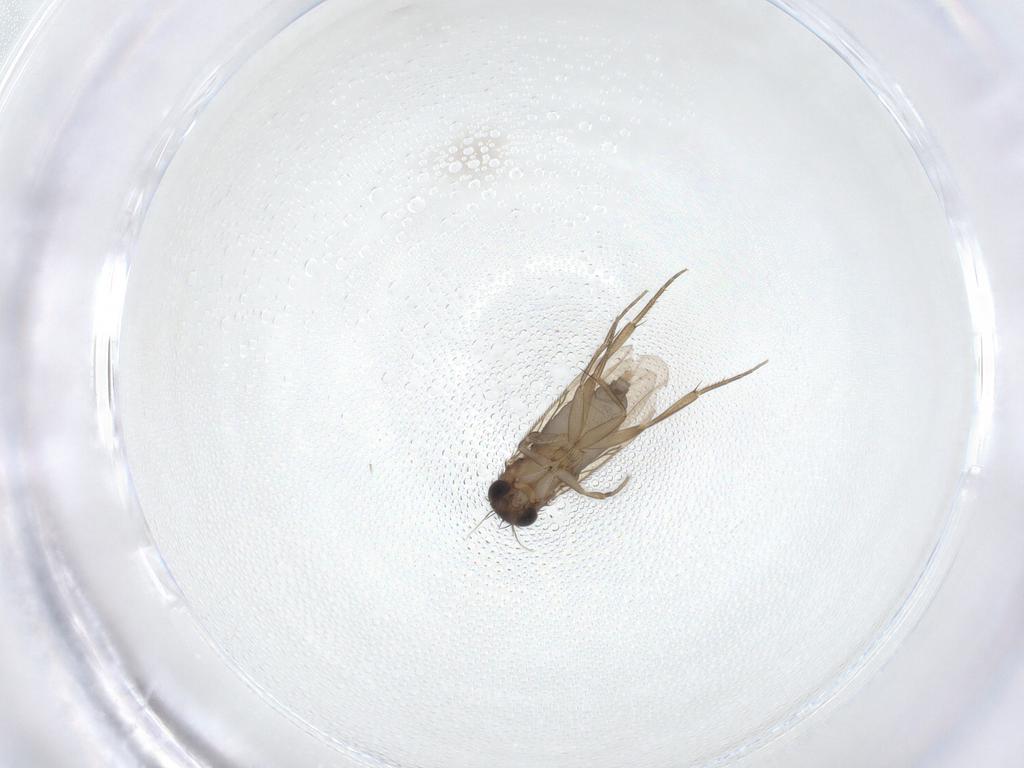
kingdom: Animalia
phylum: Arthropoda
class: Insecta
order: Diptera
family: Phoridae
